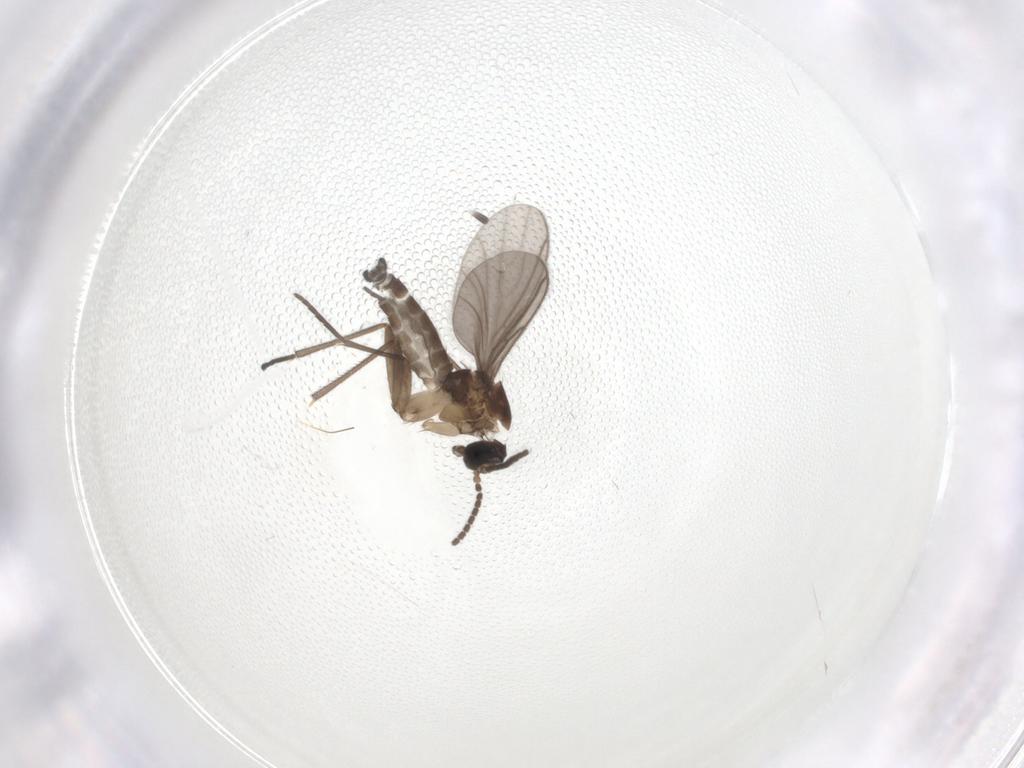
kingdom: Animalia
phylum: Arthropoda
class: Insecta
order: Diptera
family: Sciaridae
